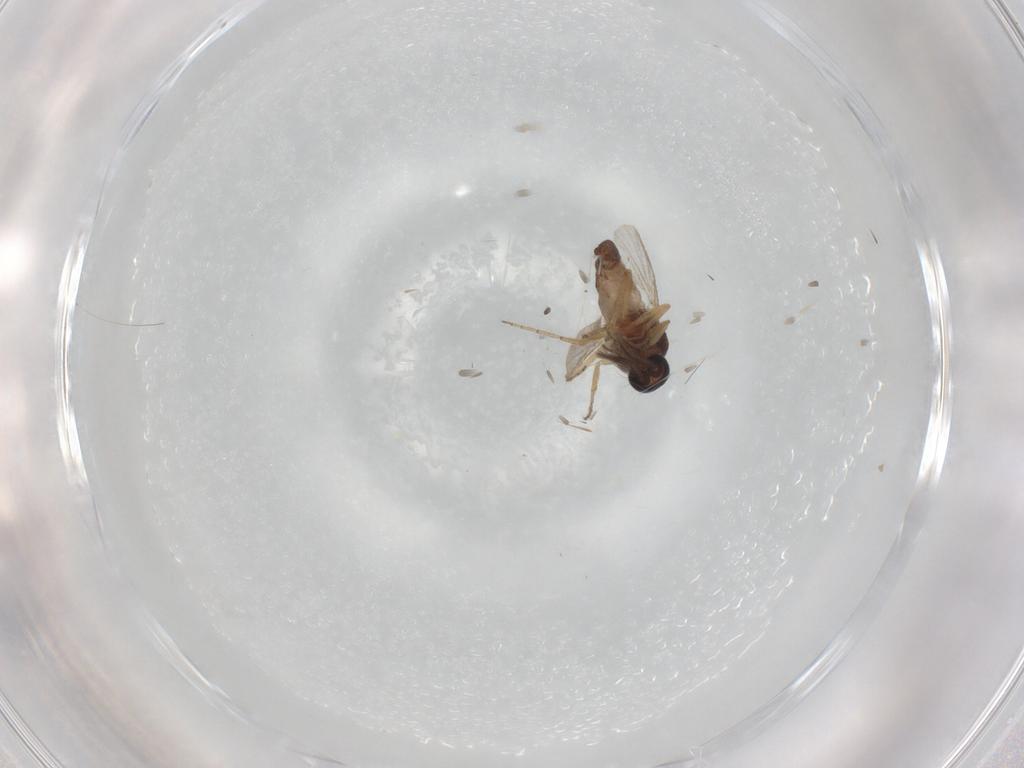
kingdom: Animalia
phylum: Arthropoda
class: Insecta
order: Diptera
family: Ceratopogonidae
